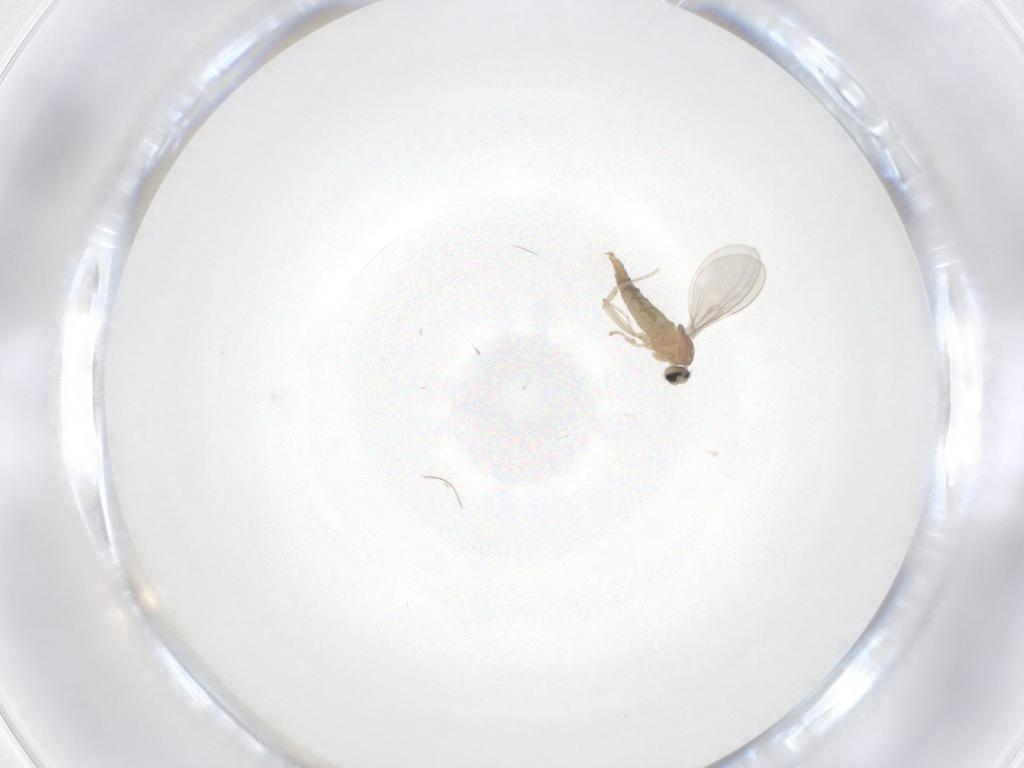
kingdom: Animalia
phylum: Arthropoda
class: Insecta
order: Diptera
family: Chironomidae
